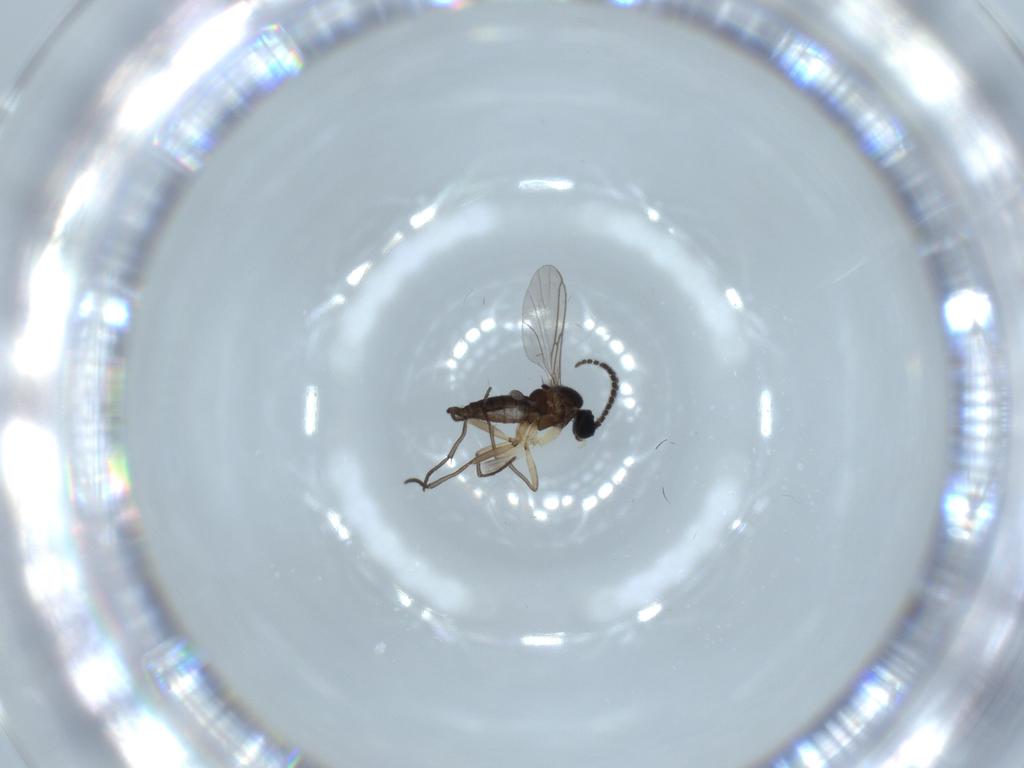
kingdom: Animalia
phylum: Arthropoda
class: Insecta
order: Diptera
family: Sciaridae
